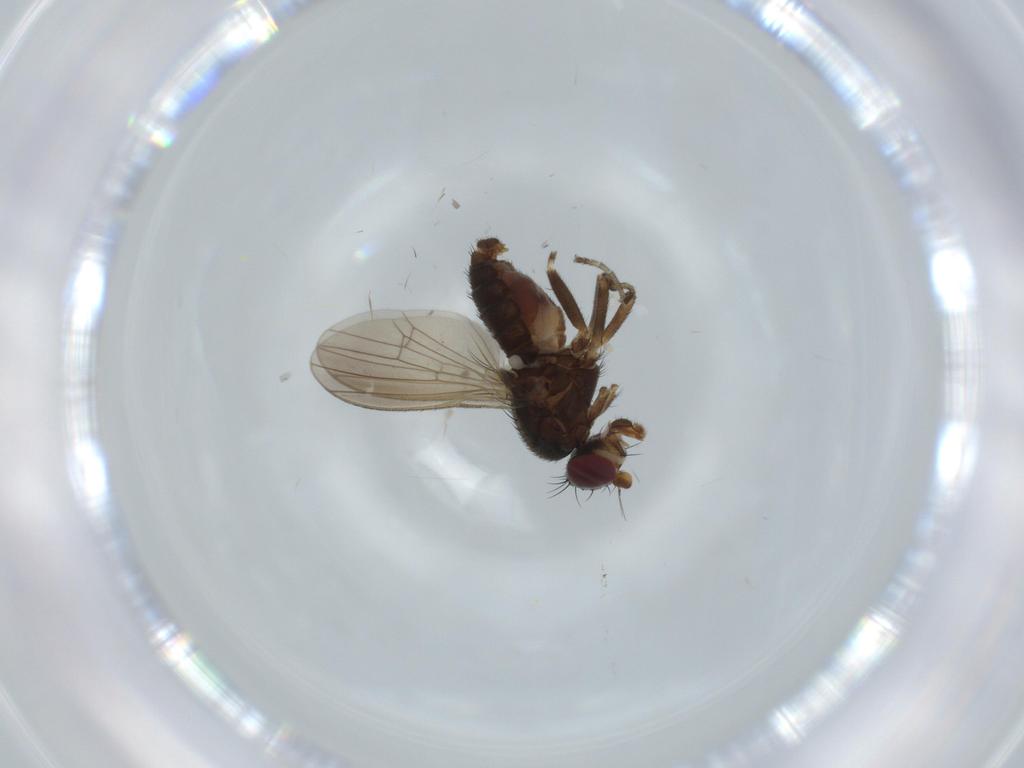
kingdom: Animalia
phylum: Arthropoda
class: Insecta
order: Diptera
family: Heleomyzidae
